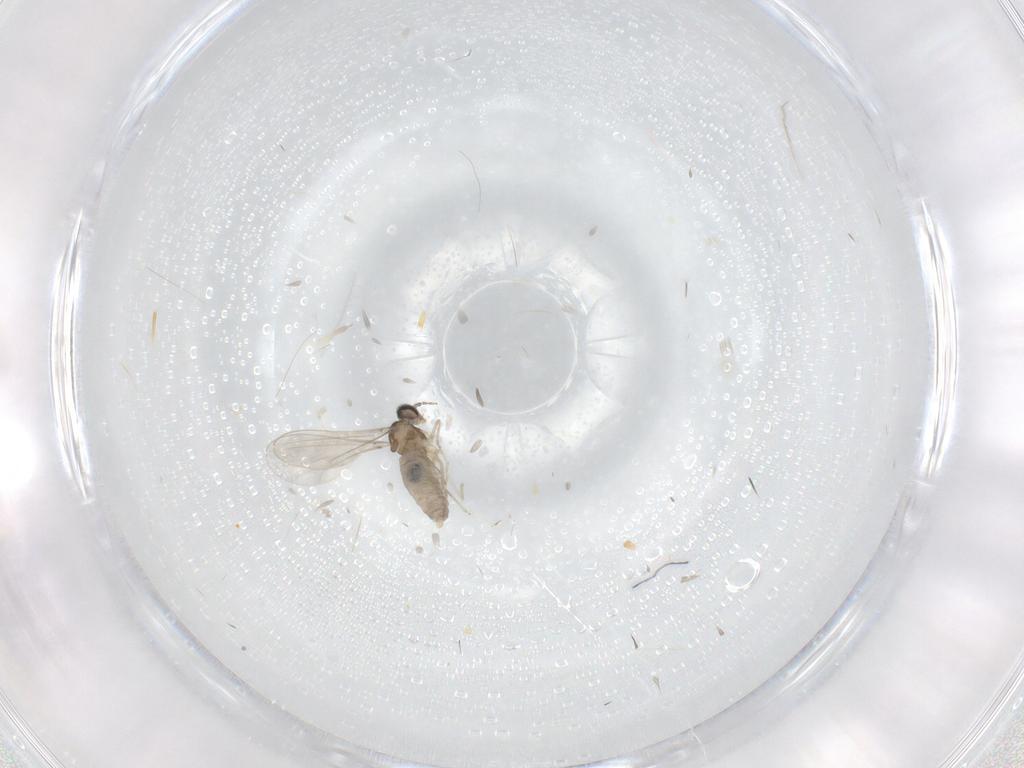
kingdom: Animalia
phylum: Arthropoda
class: Insecta
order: Diptera
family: Cecidomyiidae
